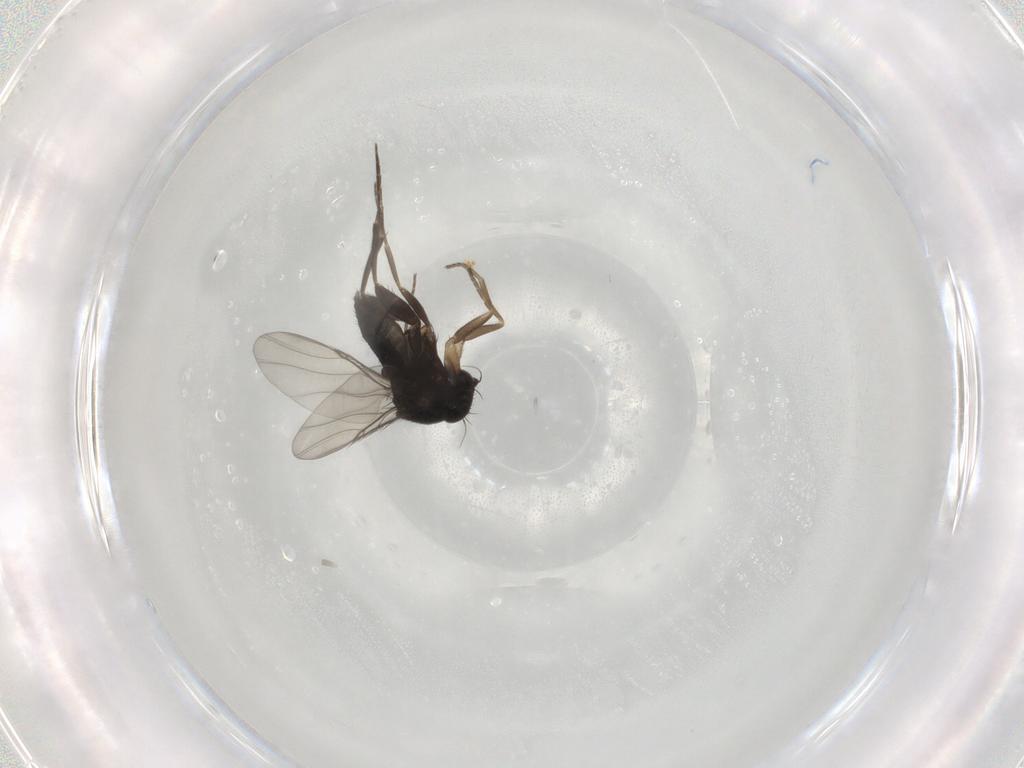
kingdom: Animalia
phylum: Arthropoda
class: Insecta
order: Diptera
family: Phoridae
